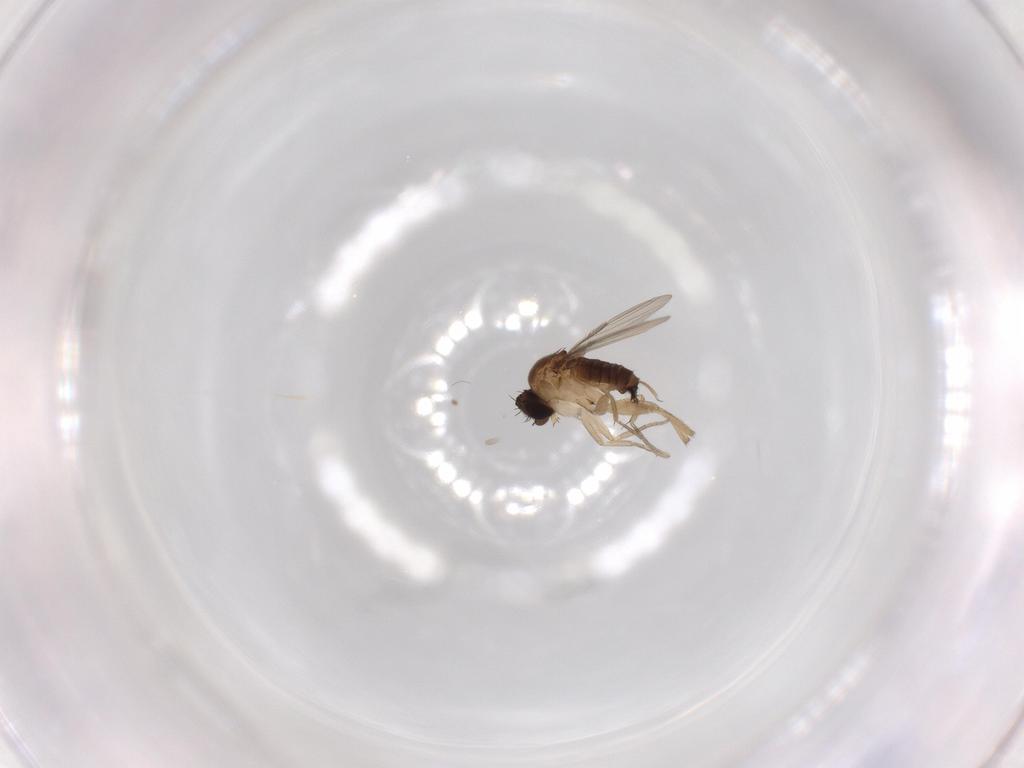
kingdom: Animalia
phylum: Arthropoda
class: Insecta
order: Diptera
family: Phoridae
